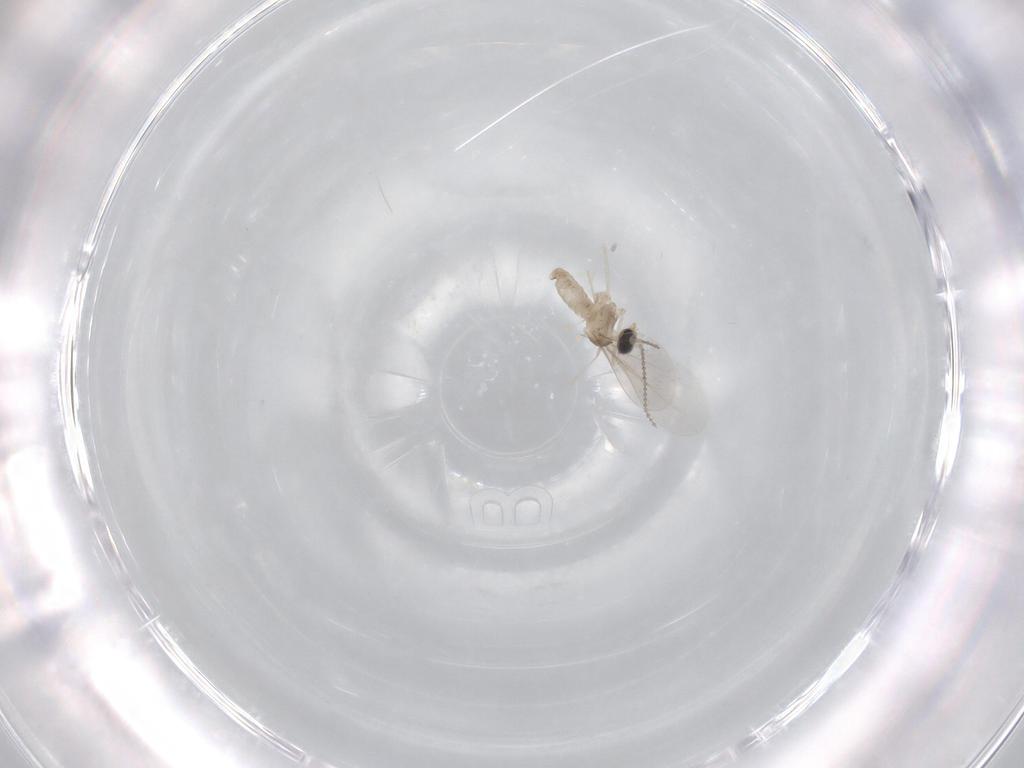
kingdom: Animalia
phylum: Arthropoda
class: Insecta
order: Diptera
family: Cecidomyiidae
